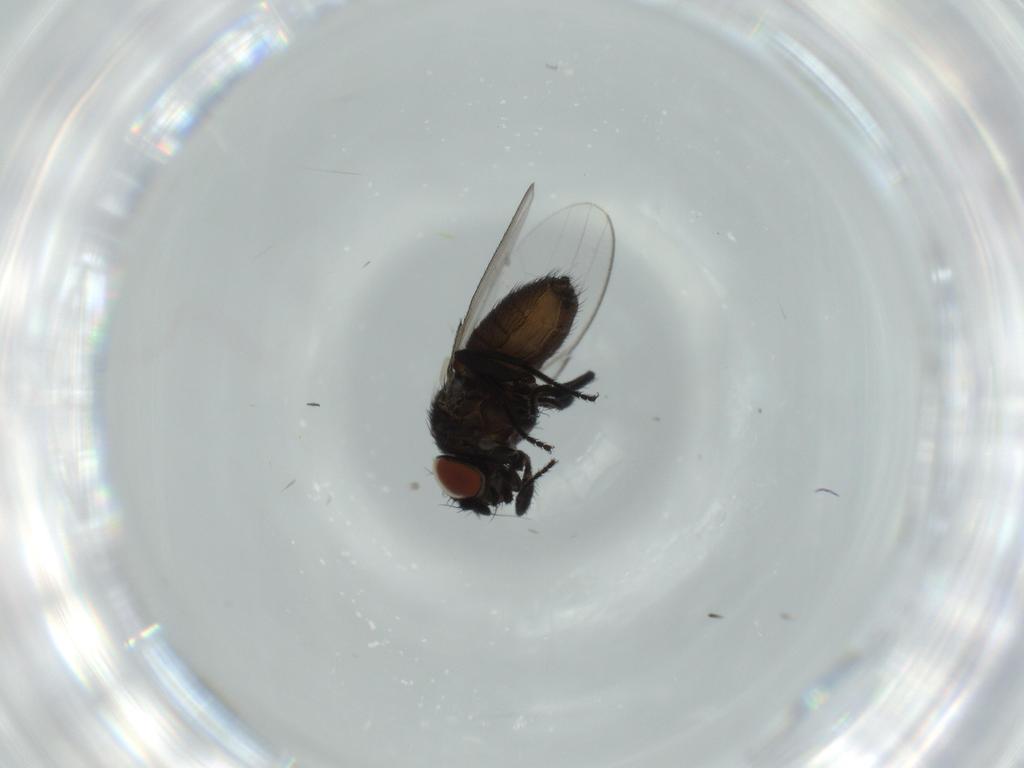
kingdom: Animalia
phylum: Arthropoda
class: Insecta
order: Diptera
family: Milichiidae
